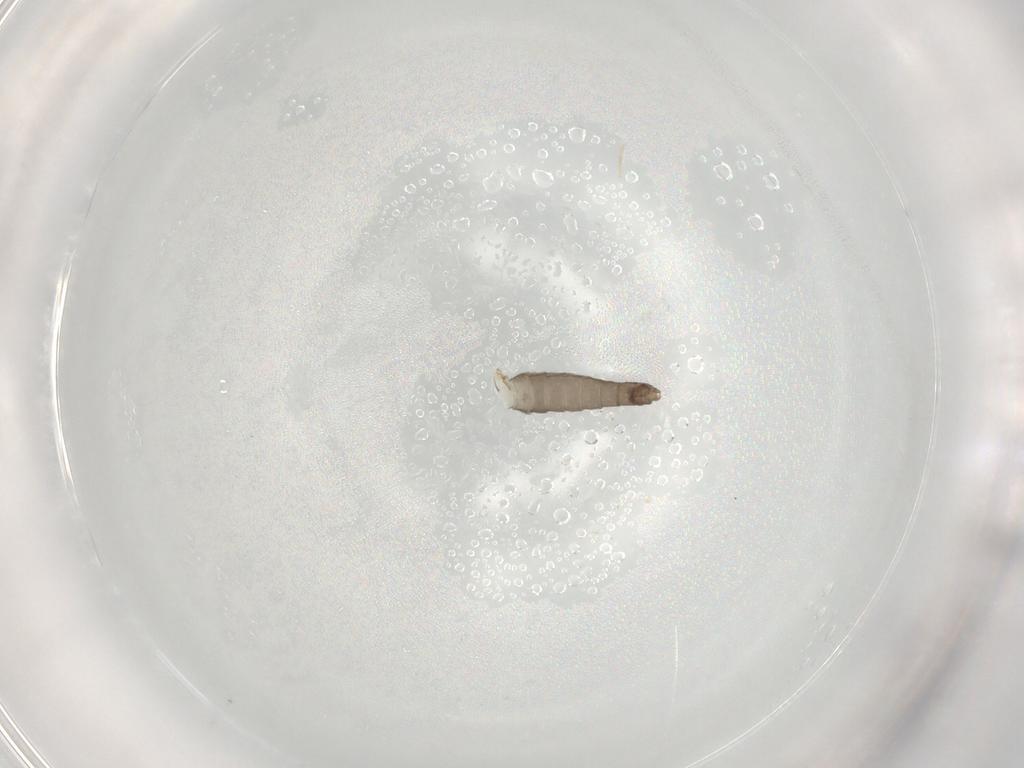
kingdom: Animalia
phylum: Arthropoda
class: Insecta
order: Diptera
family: Chironomidae
